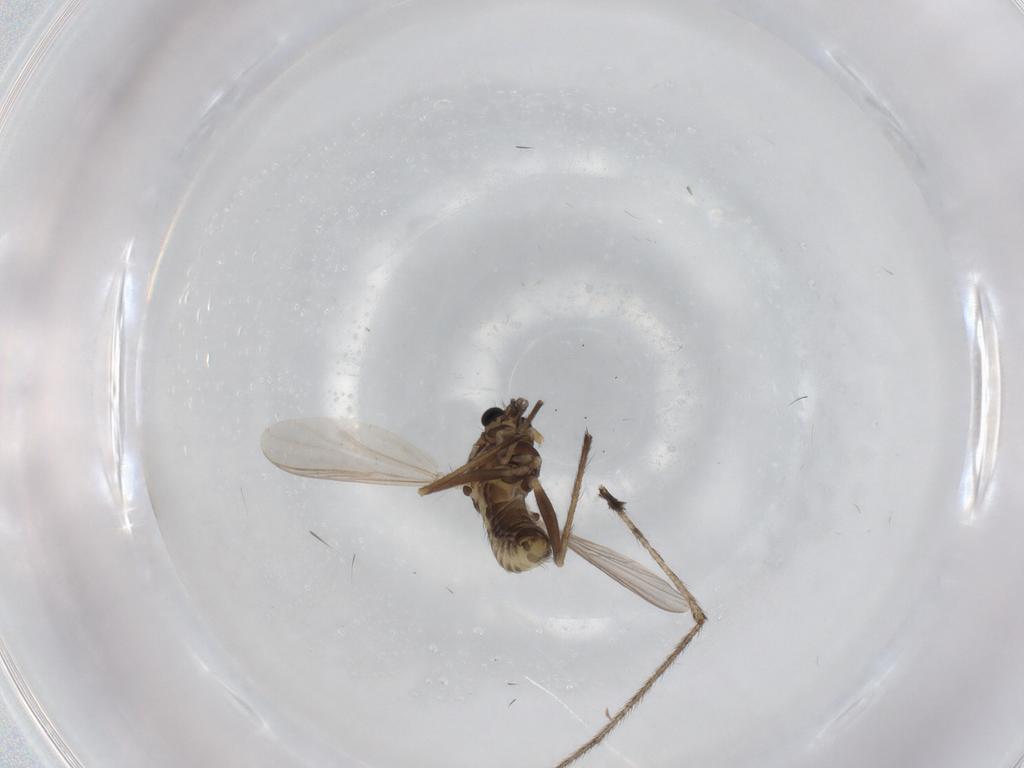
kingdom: Animalia
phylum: Arthropoda
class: Insecta
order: Diptera
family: Chironomidae
